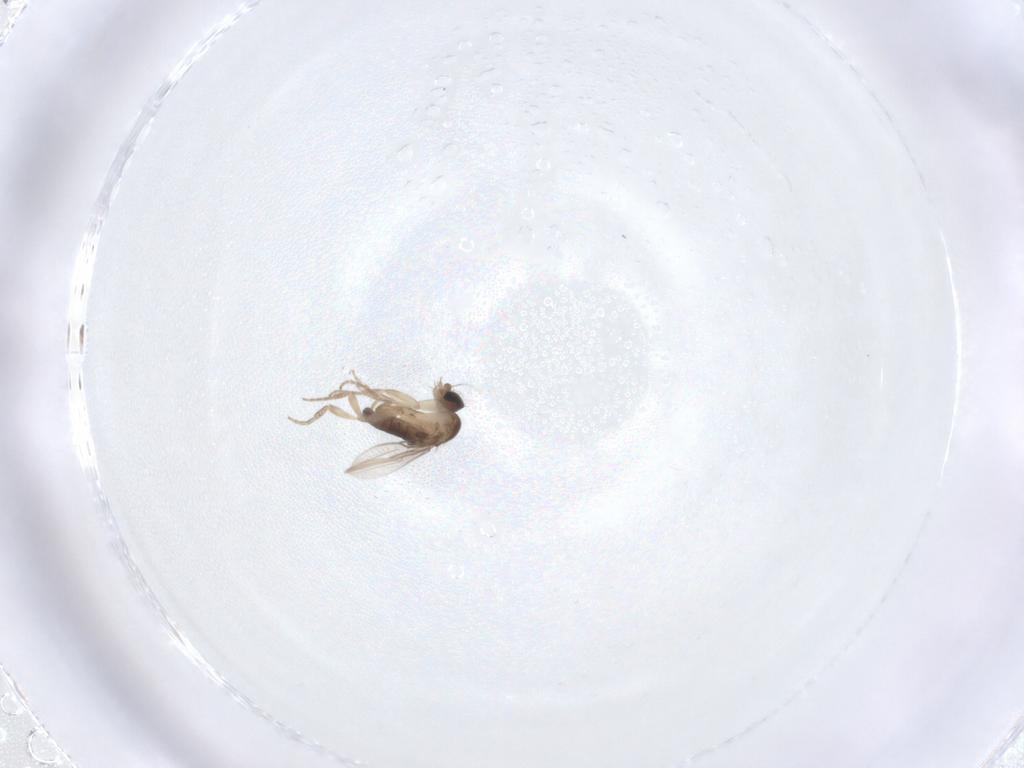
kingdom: Animalia
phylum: Arthropoda
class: Insecta
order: Diptera
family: Phoridae
